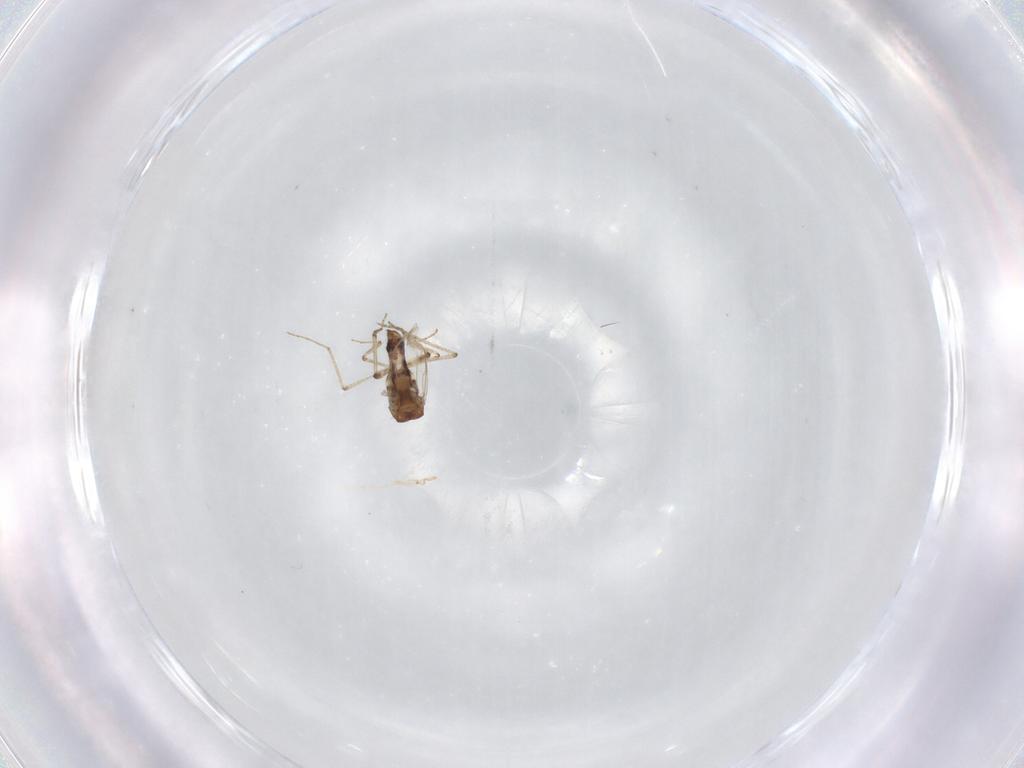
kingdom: Animalia
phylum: Arthropoda
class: Insecta
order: Diptera
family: Ceratopogonidae
